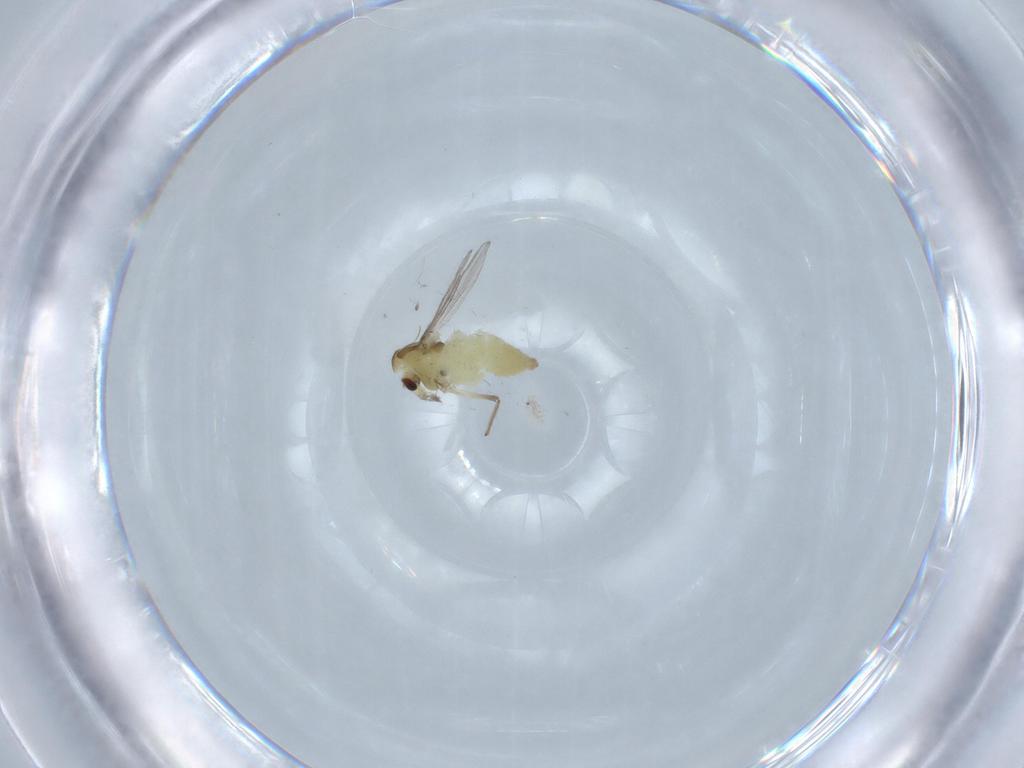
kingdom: Animalia
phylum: Arthropoda
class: Insecta
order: Diptera
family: Chironomidae
